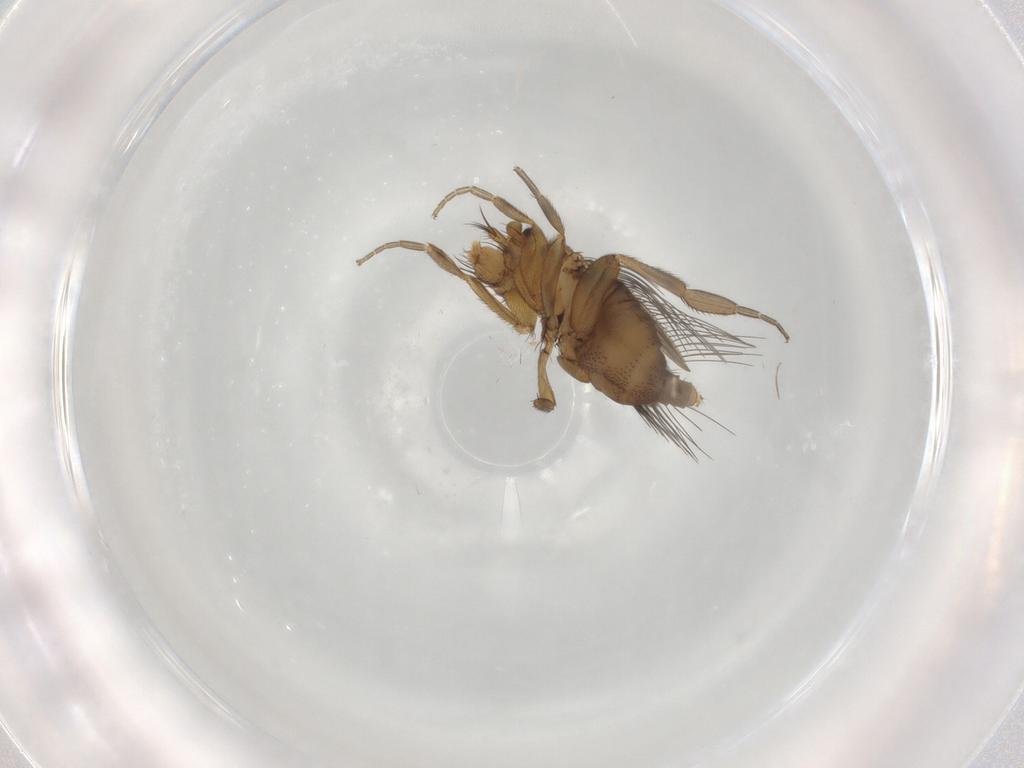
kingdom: Animalia
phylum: Arthropoda
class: Insecta
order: Diptera
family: Phoridae
